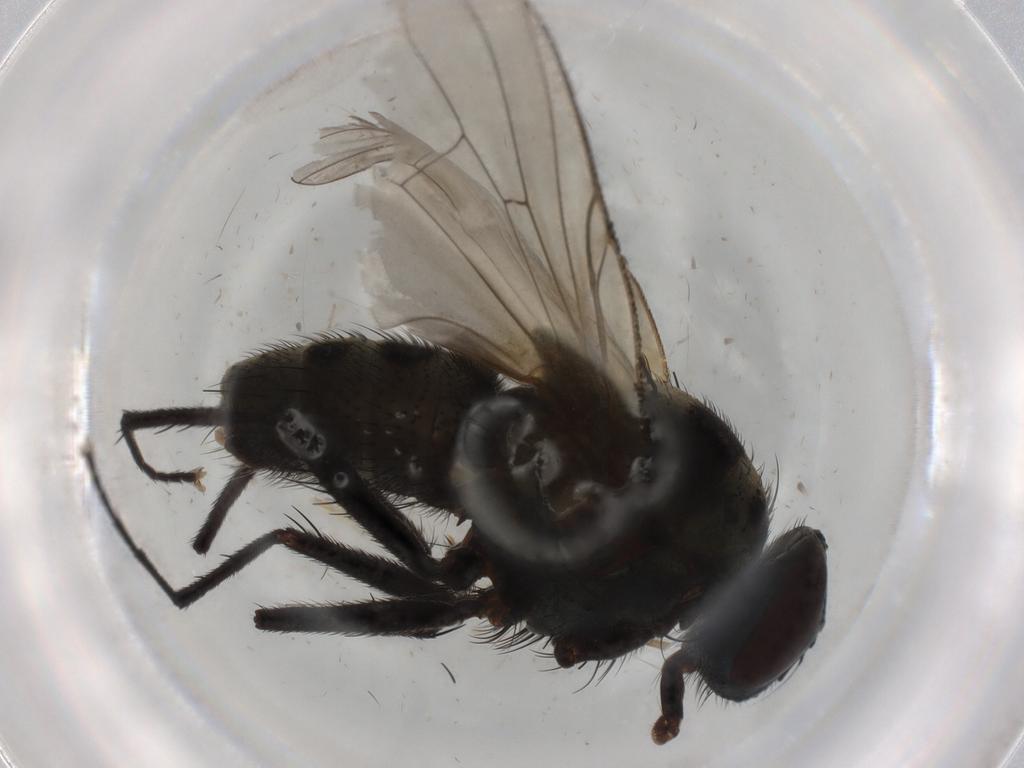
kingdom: Animalia
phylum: Arthropoda
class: Insecta
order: Diptera
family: Muscidae
